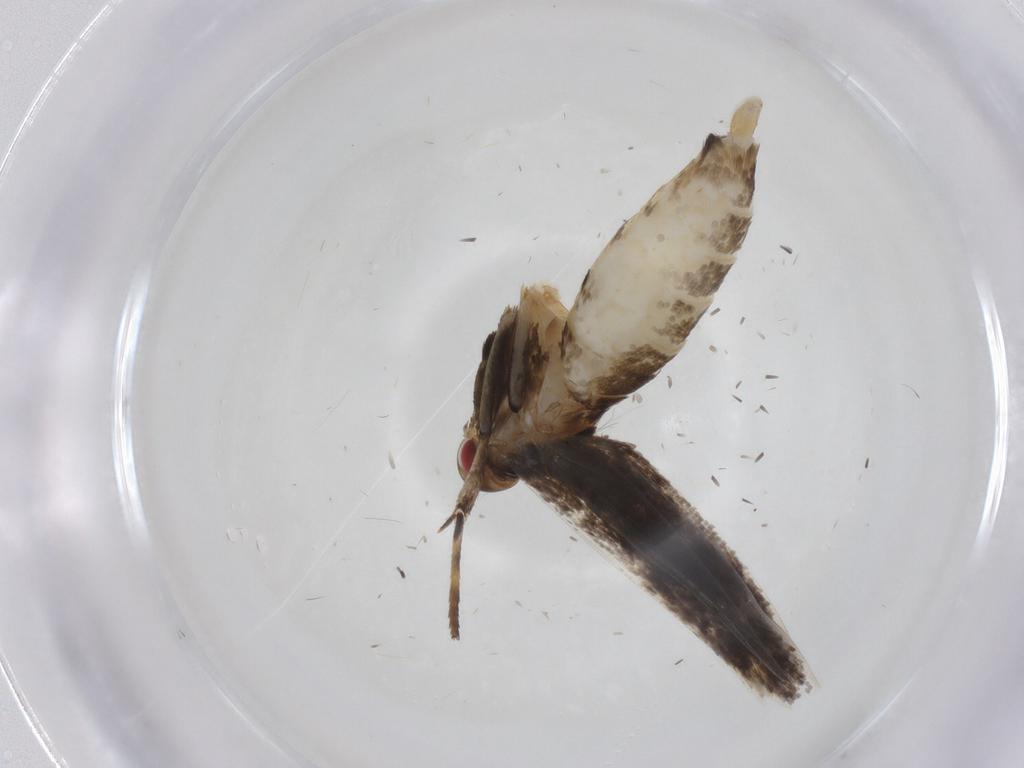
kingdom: Animalia
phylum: Arthropoda
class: Insecta
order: Lepidoptera
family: Gelechiidae
